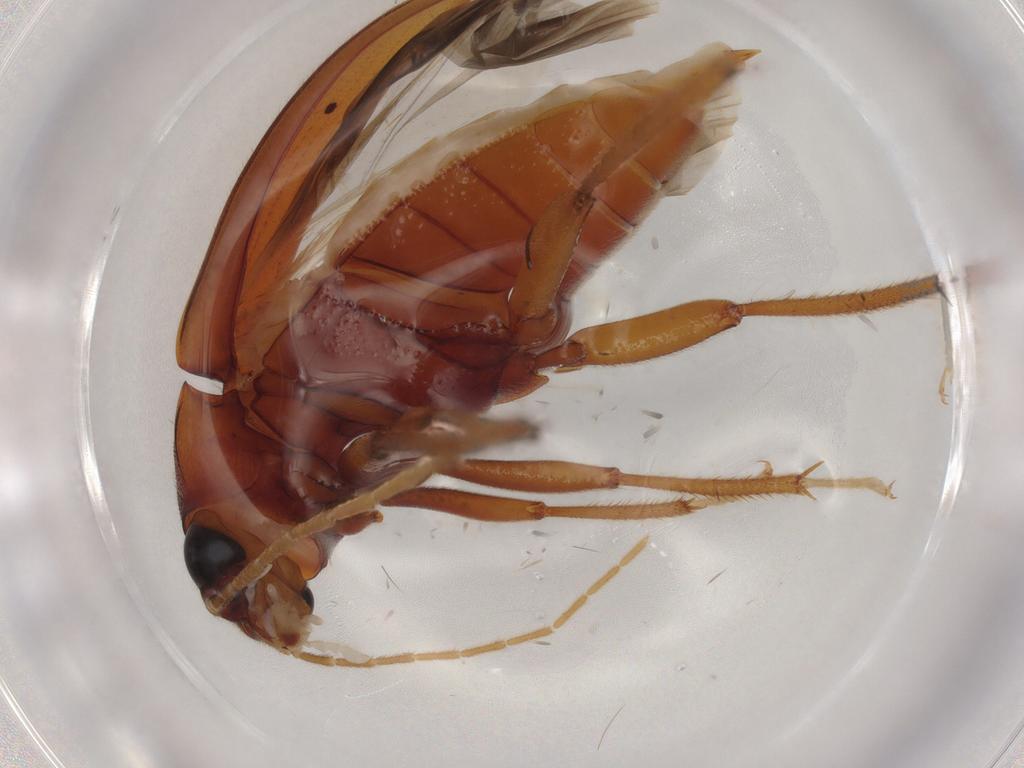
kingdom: Animalia
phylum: Arthropoda
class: Insecta
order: Coleoptera
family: Ptilodactylidae
